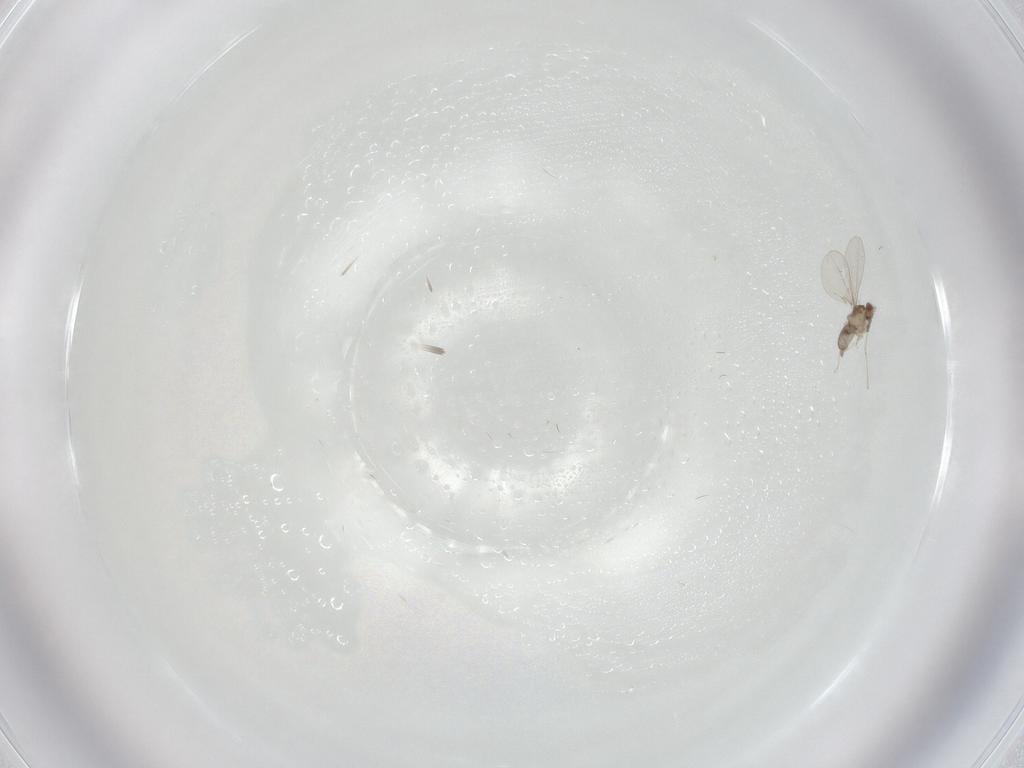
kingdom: Animalia
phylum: Arthropoda
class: Insecta
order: Diptera
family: Cecidomyiidae
